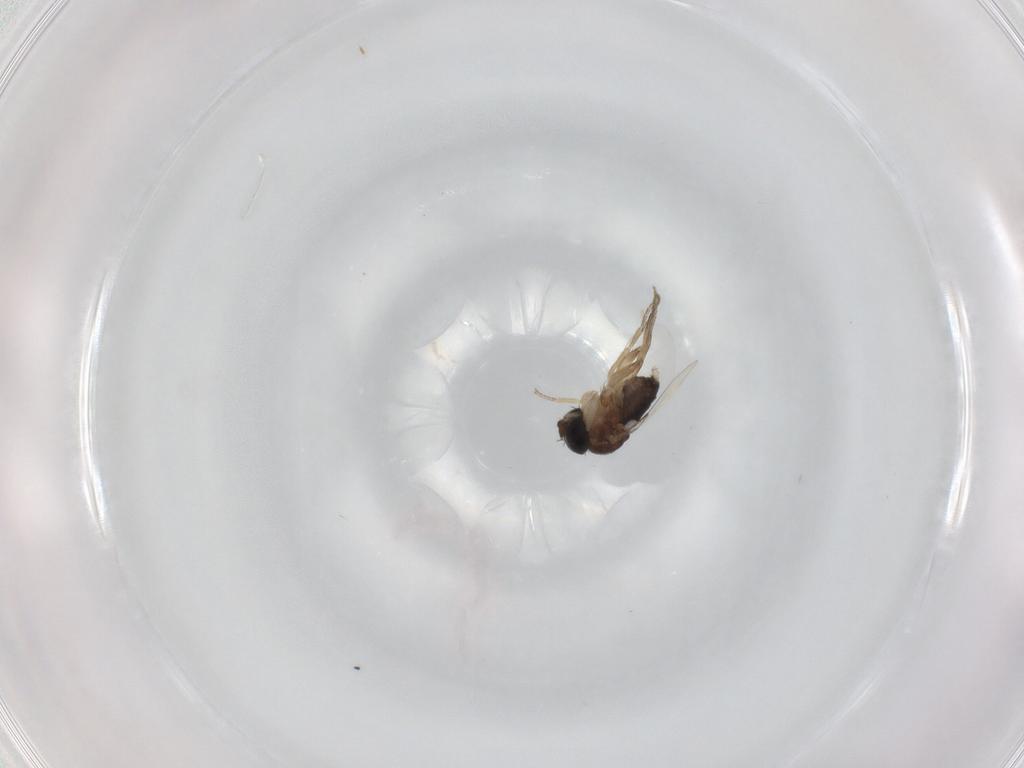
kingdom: Animalia
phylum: Arthropoda
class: Insecta
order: Diptera
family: Phoridae
